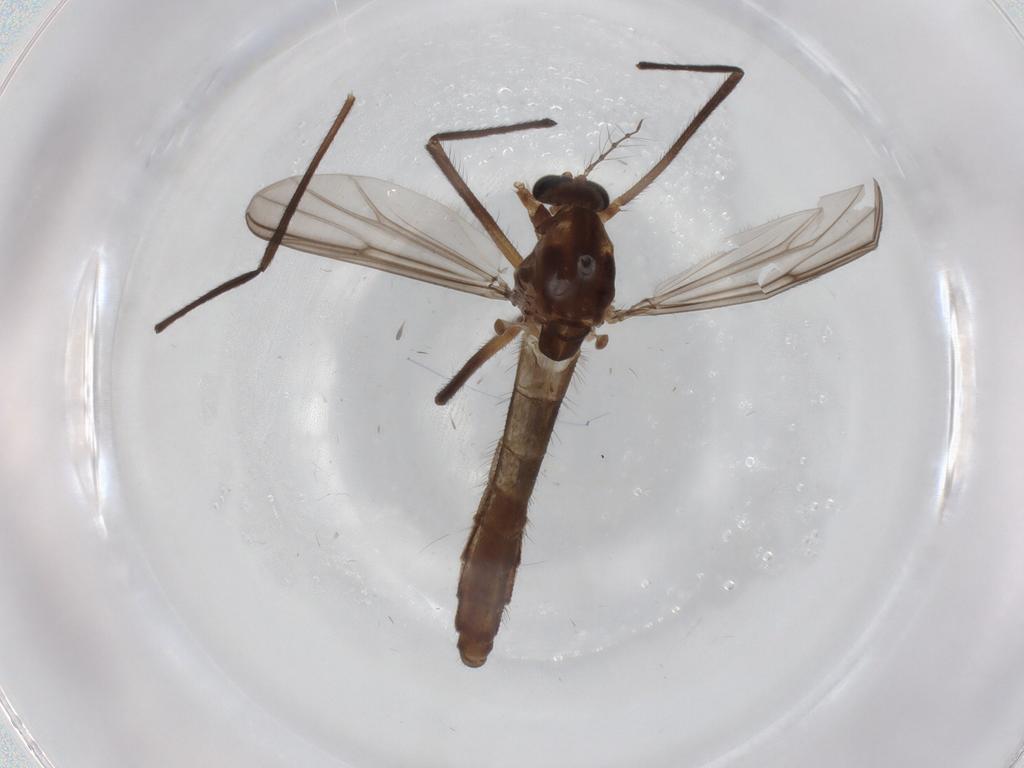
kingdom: Animalia
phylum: Arthropoda
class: Insecta
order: Diptera
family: Chironomidae
